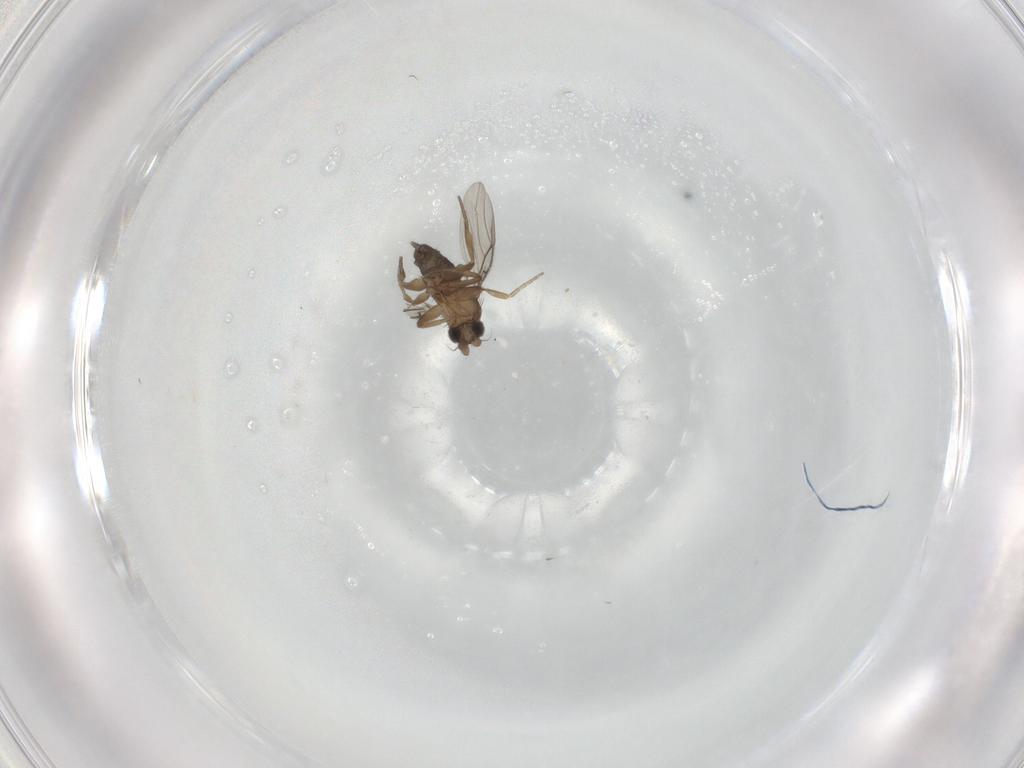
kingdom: Animalia
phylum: Arthropoda
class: Insecta
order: Diptera
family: Phoridae
